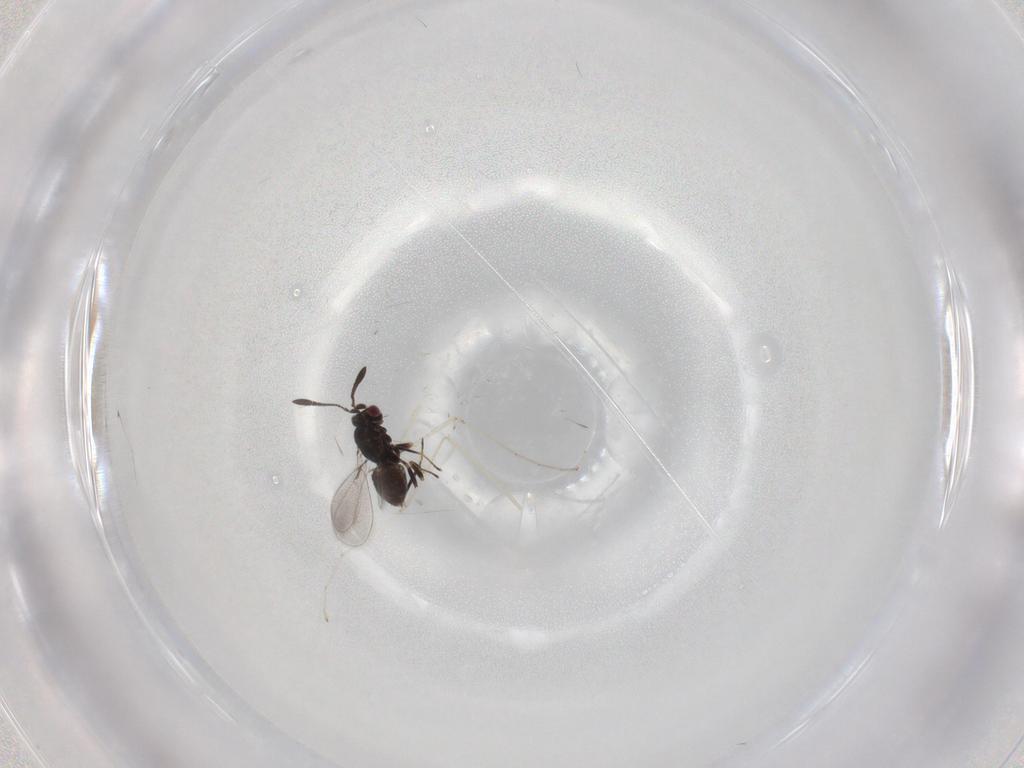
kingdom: Animalia
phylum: Arthropoda
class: Insecta
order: Hymenoptera
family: Mymaridae
